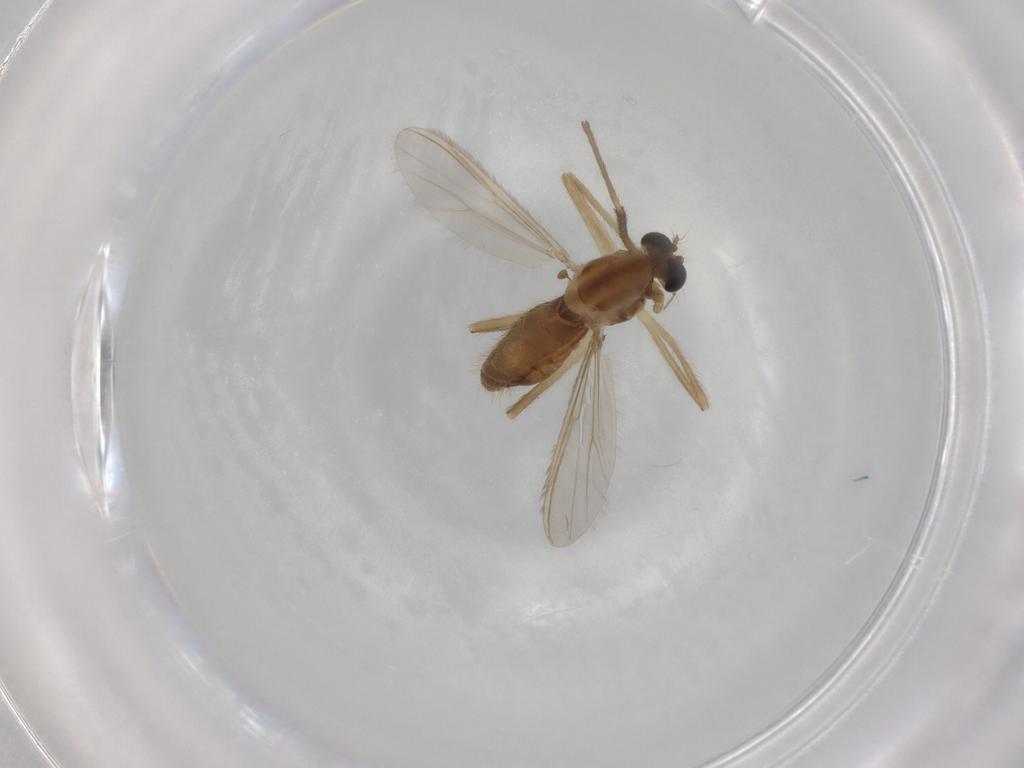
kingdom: Animalia
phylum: Arthropoda
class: Insecta
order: Diptera
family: Chironomidae
